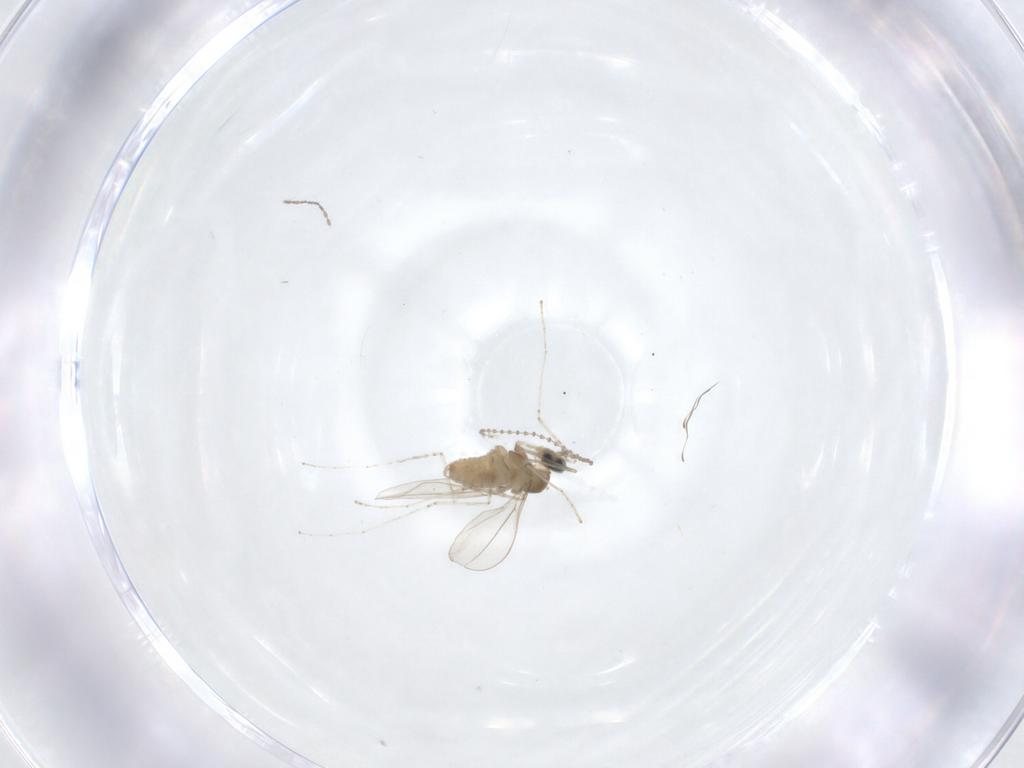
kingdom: Animalia
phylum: Arthropoda
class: Insecta
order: Diptera
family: Cecidomyiidae
